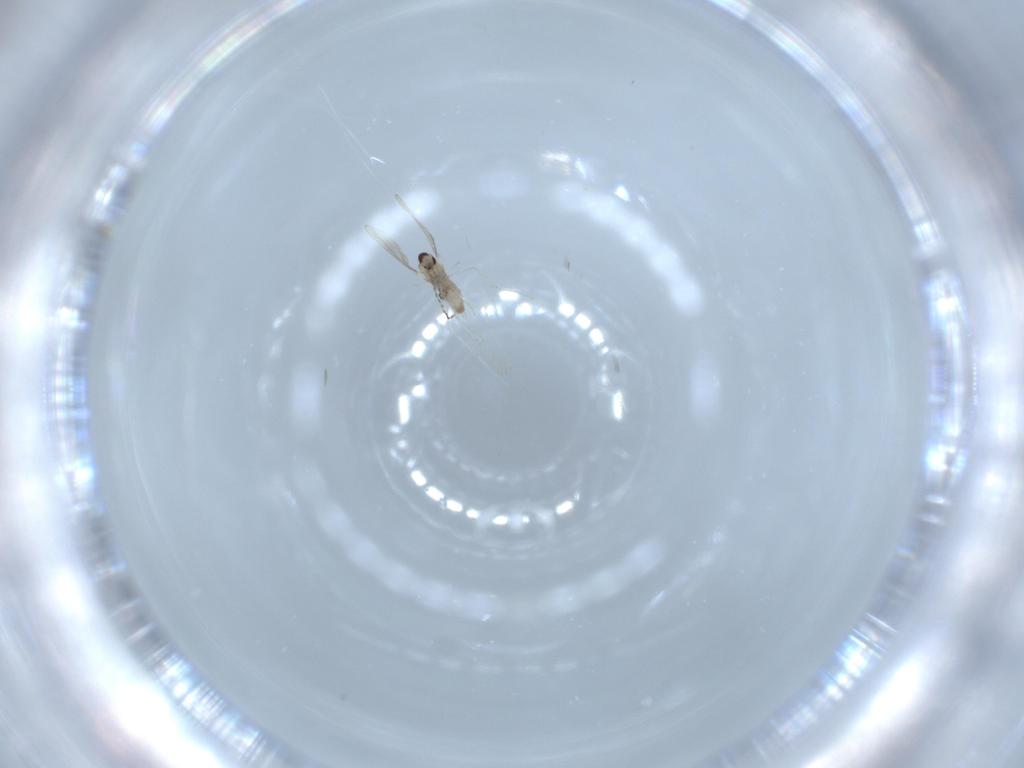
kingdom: Animalia
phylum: Arthropoda
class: Insecta
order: Diptera
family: Cecidomyiidae
